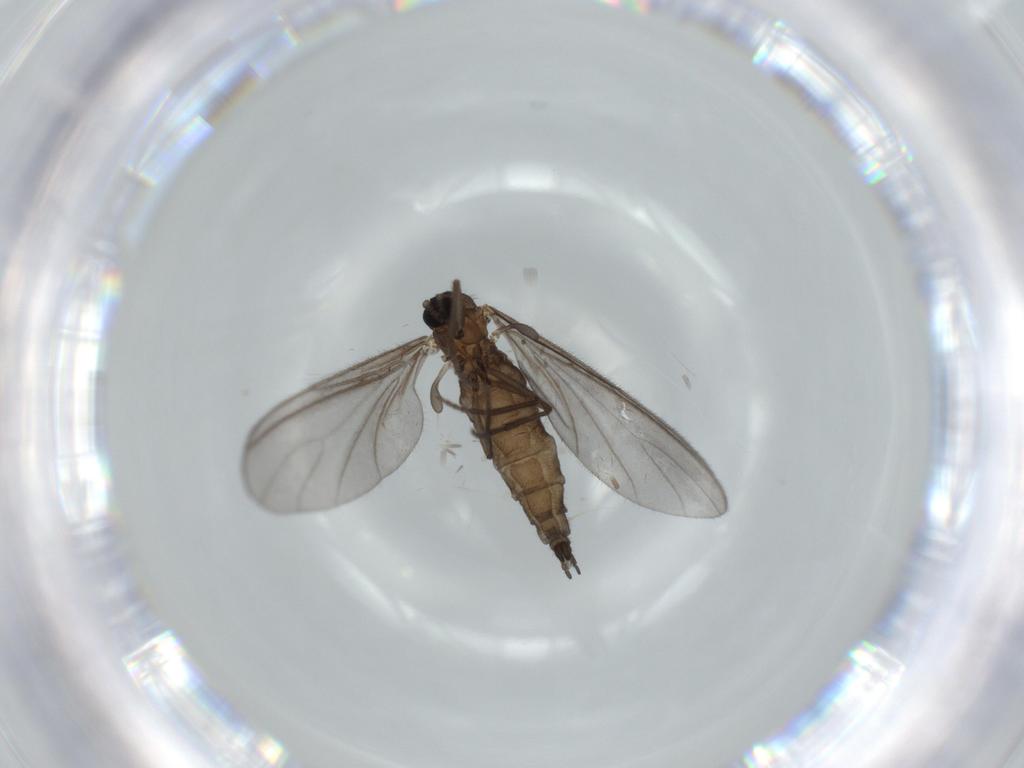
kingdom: Animalia
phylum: Arthropoda
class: Insecta
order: Diptera
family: Sciaridae
